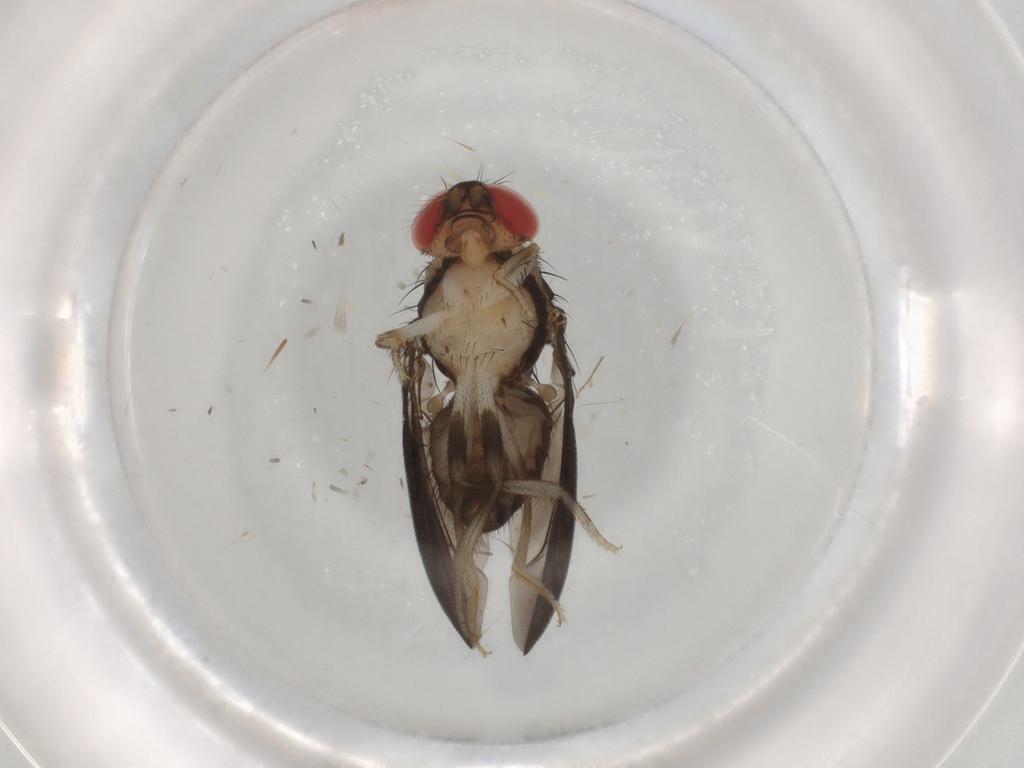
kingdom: Animalia
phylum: Arthropoda
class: Insecta
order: Diptera
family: Drosophilidae
